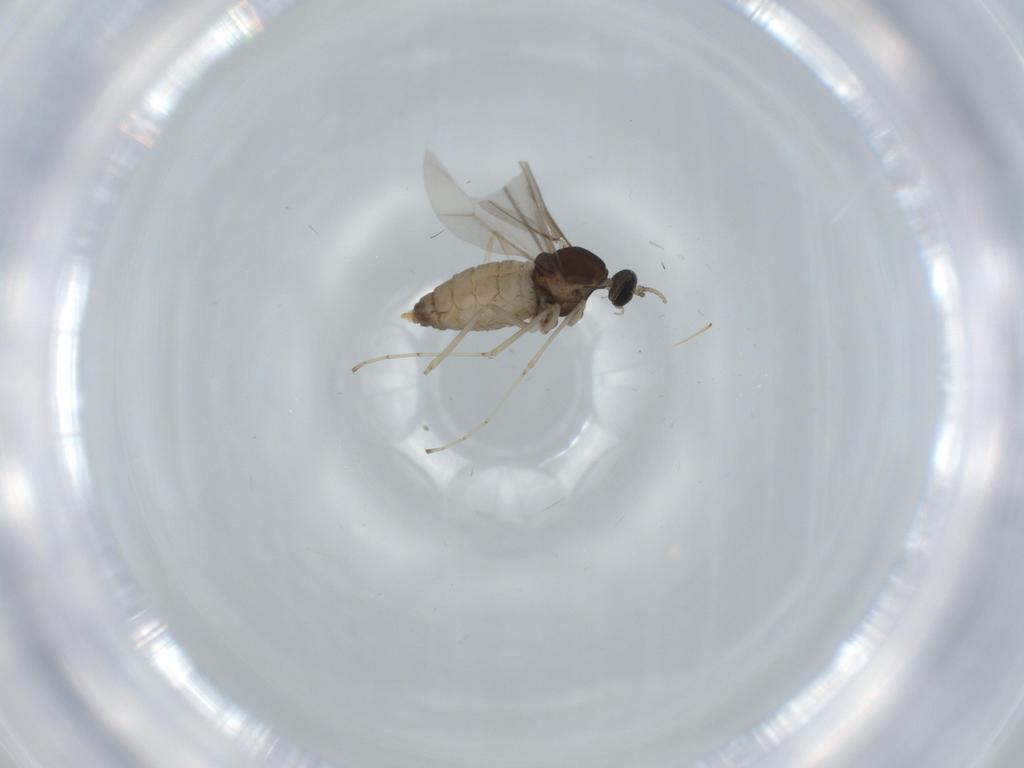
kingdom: Animalia
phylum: Arthropoda
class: Insecta
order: Diptera
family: Cecidomyiidae
